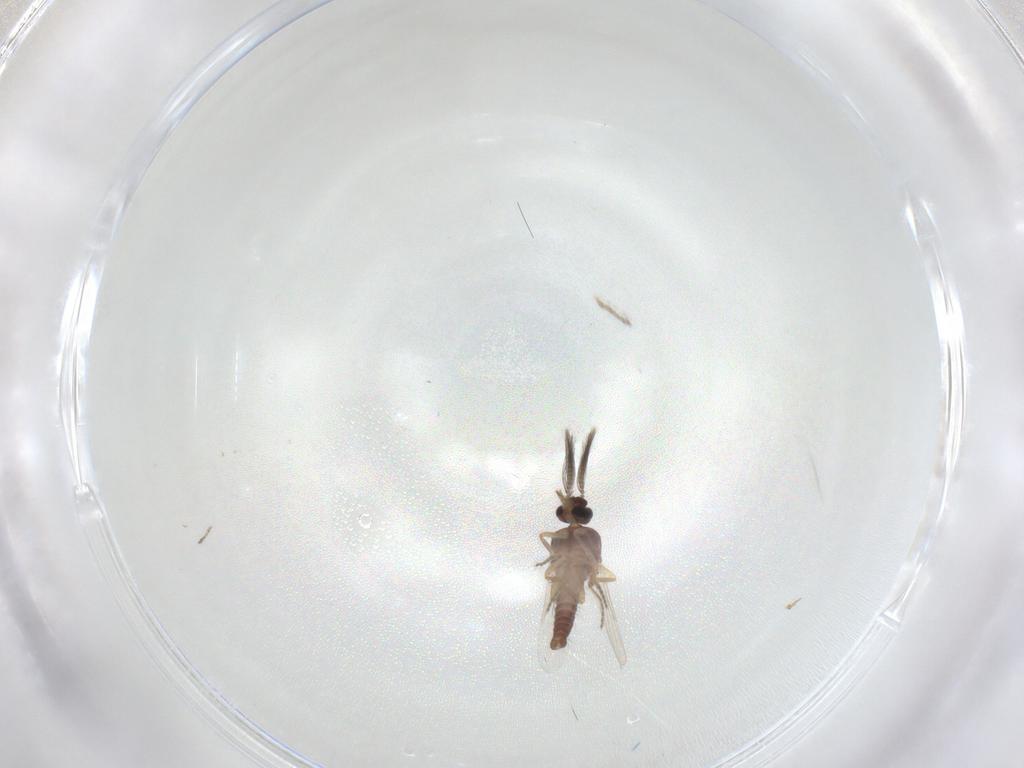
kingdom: Animalia
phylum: Arthropoda
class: Insecta
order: Diptera
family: Ceratopogonidae
